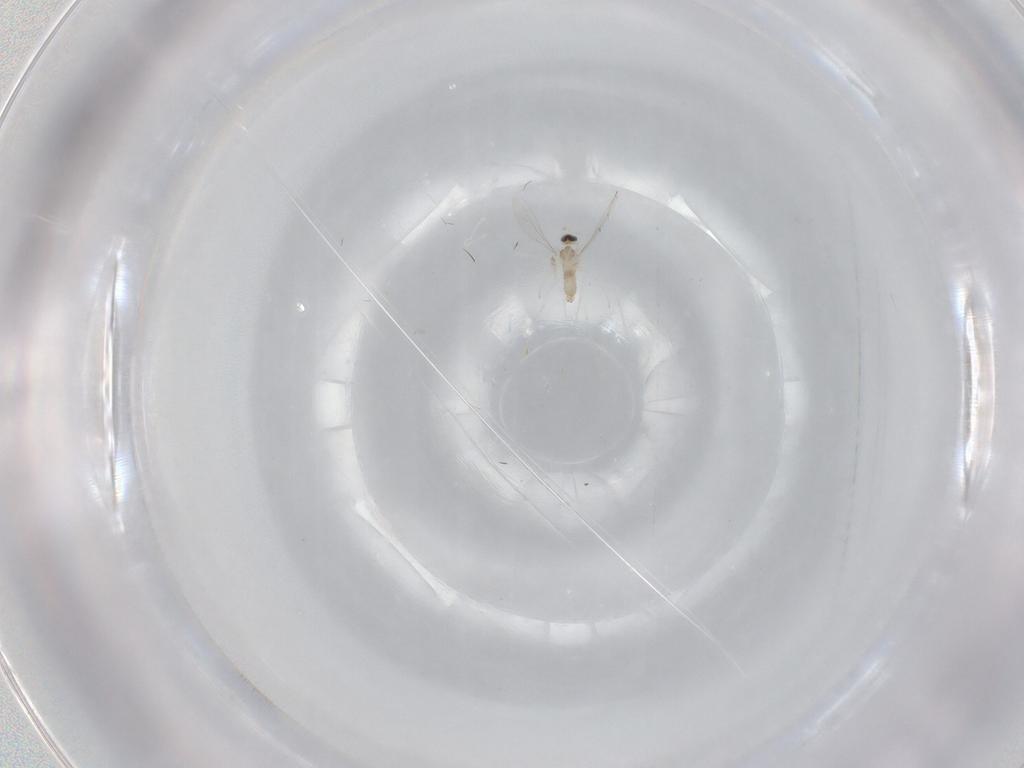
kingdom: Animalia
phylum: Arthropoda
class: Insecta
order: Diptera
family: Cecidomyiidae
